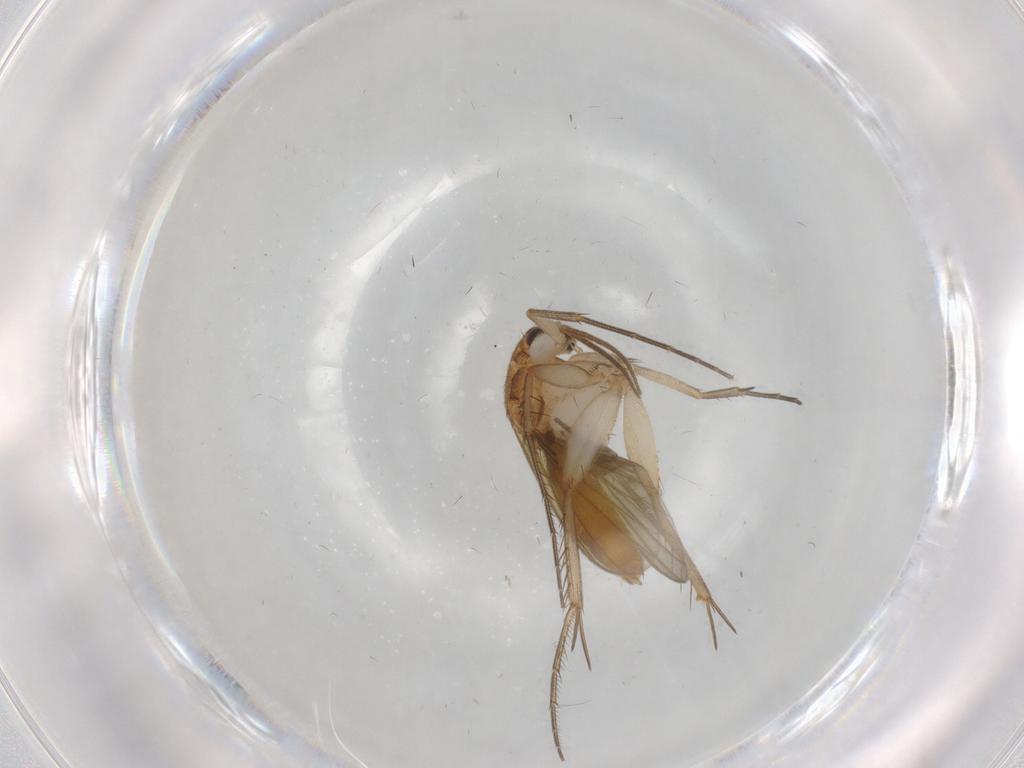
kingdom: Animalia
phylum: Arthropoda
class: Insecta
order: Diptera
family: Mycetophilidae
